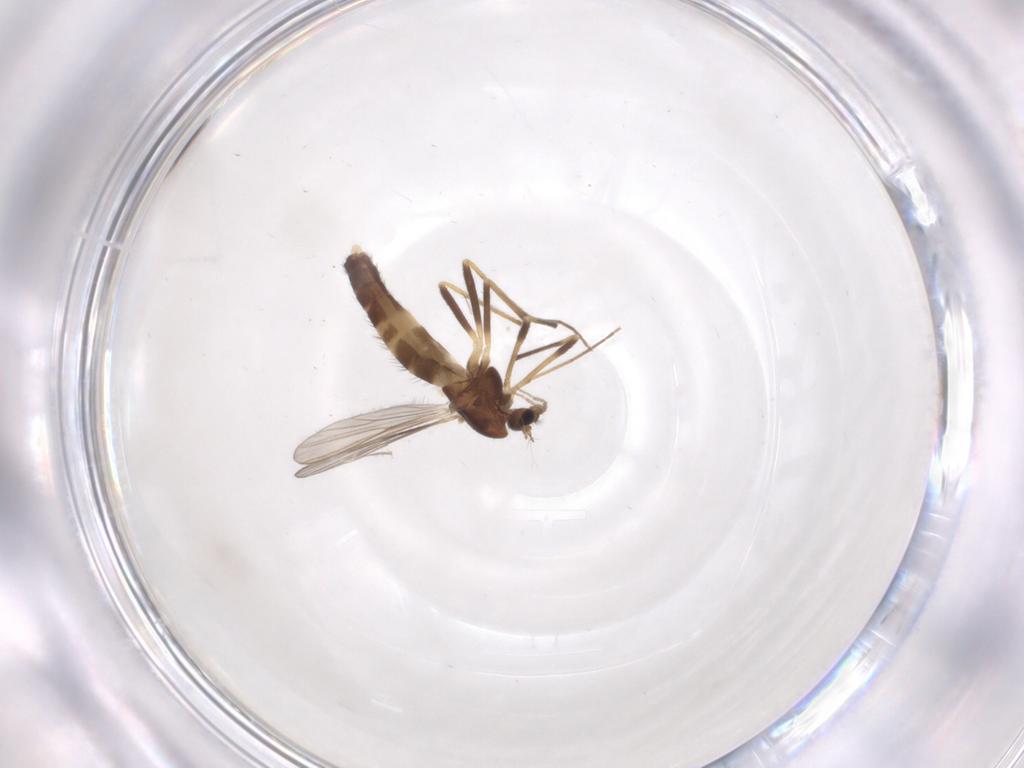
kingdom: Animalia
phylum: Arthropoda
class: Insecta
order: Diptera
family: Chironomidae
